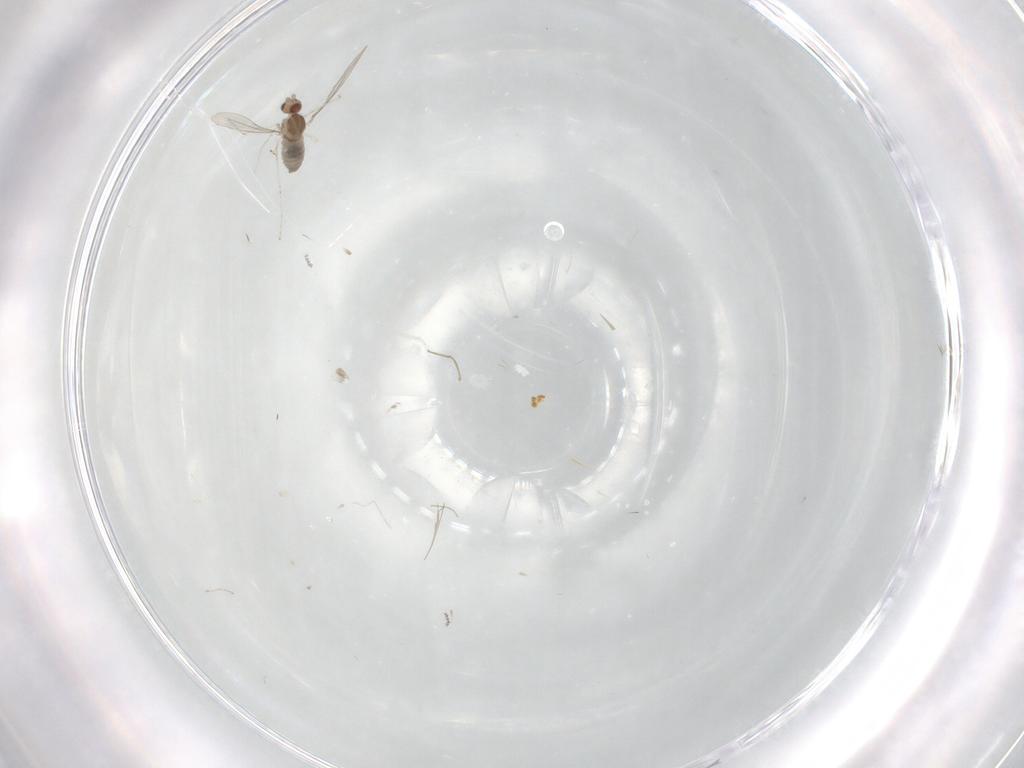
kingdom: Animalia
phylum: Arthropoda
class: Insecta
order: Diptera
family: Cecidomyiidae
